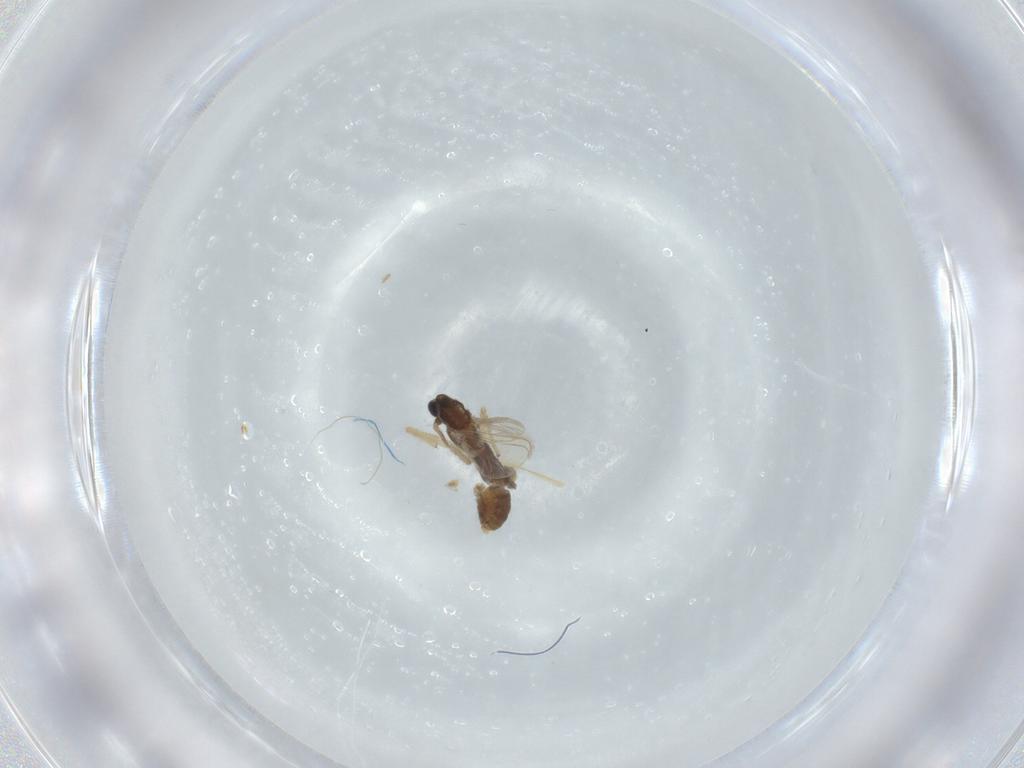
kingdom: Animalia
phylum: Arthropoda
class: Insecta
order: Diptera
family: Chironomidae
